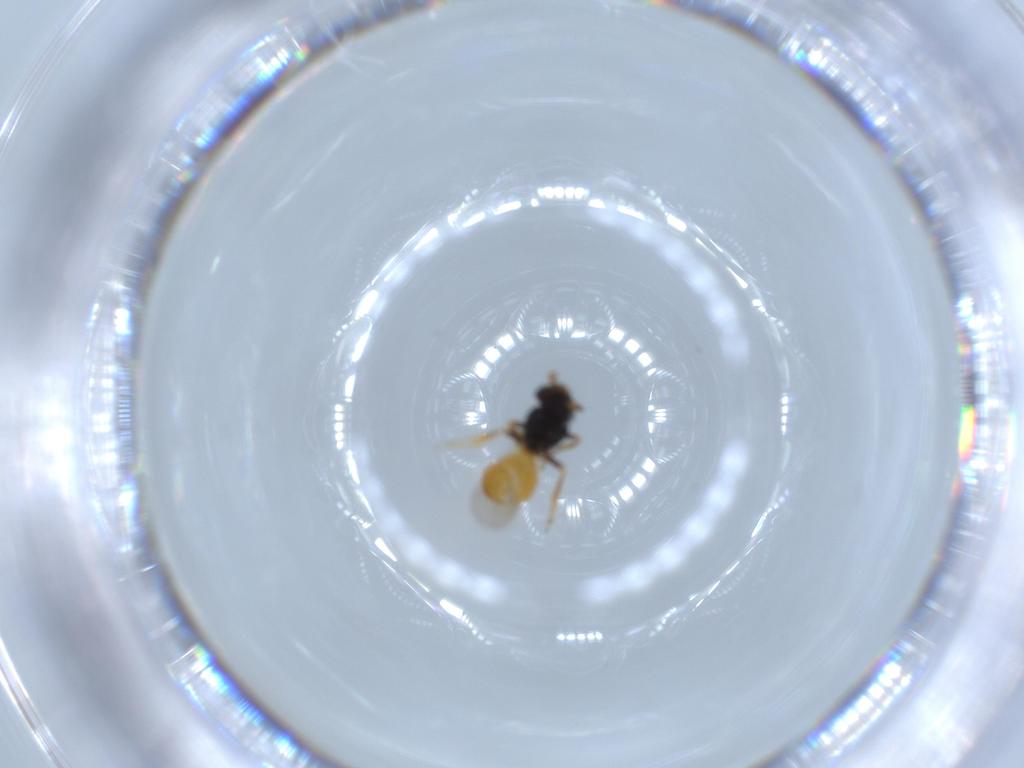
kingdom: Animalia
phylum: Arthropoda
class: Insecta
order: Hymenoptera
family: Scelionidae
